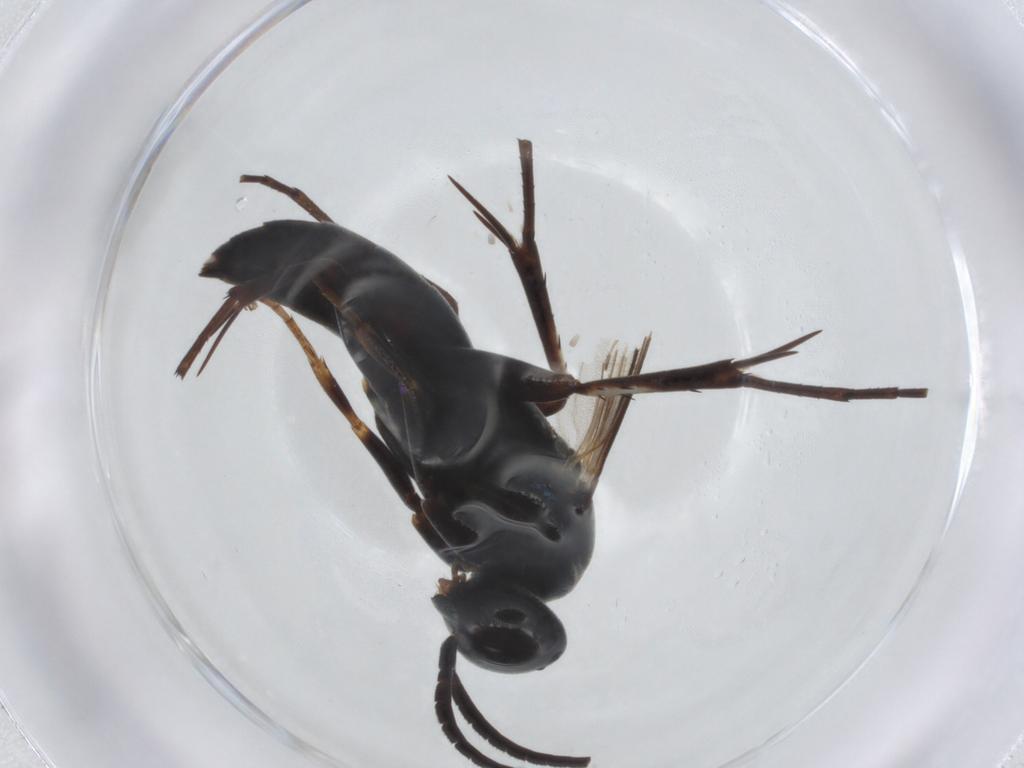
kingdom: Animalia
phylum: Arthropoda
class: Insecta
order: Hymenoptera
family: Pompilidae
